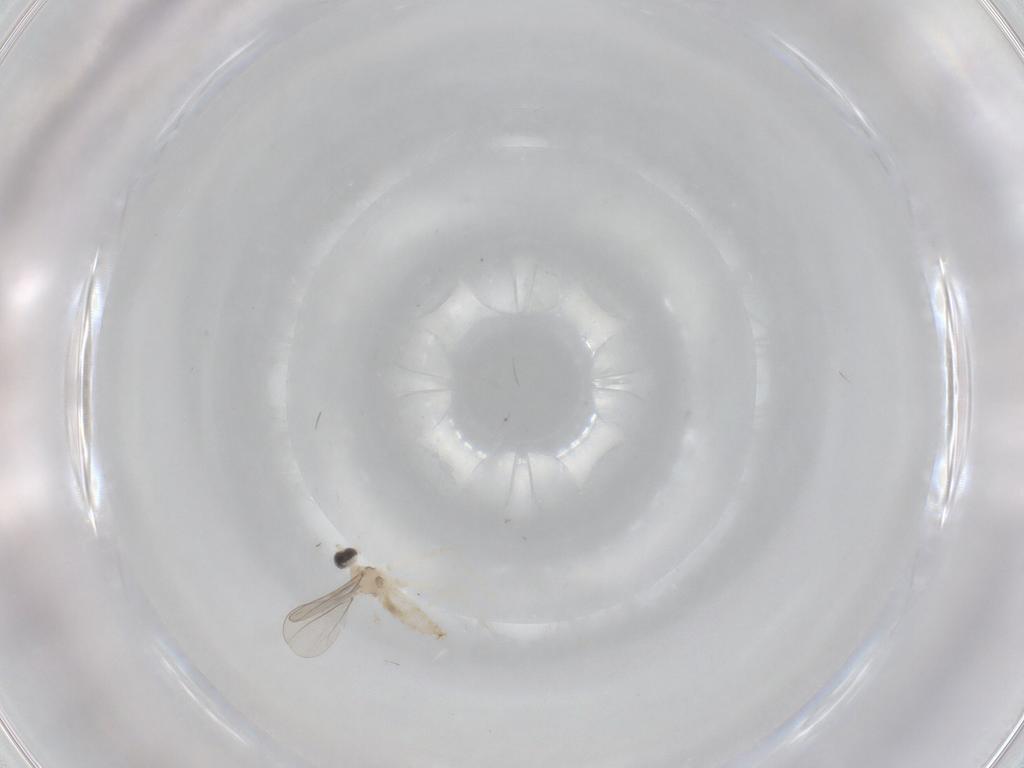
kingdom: Animalia
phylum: Arthropoda
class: Insecta
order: Diptera
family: Cecidomyiidae
